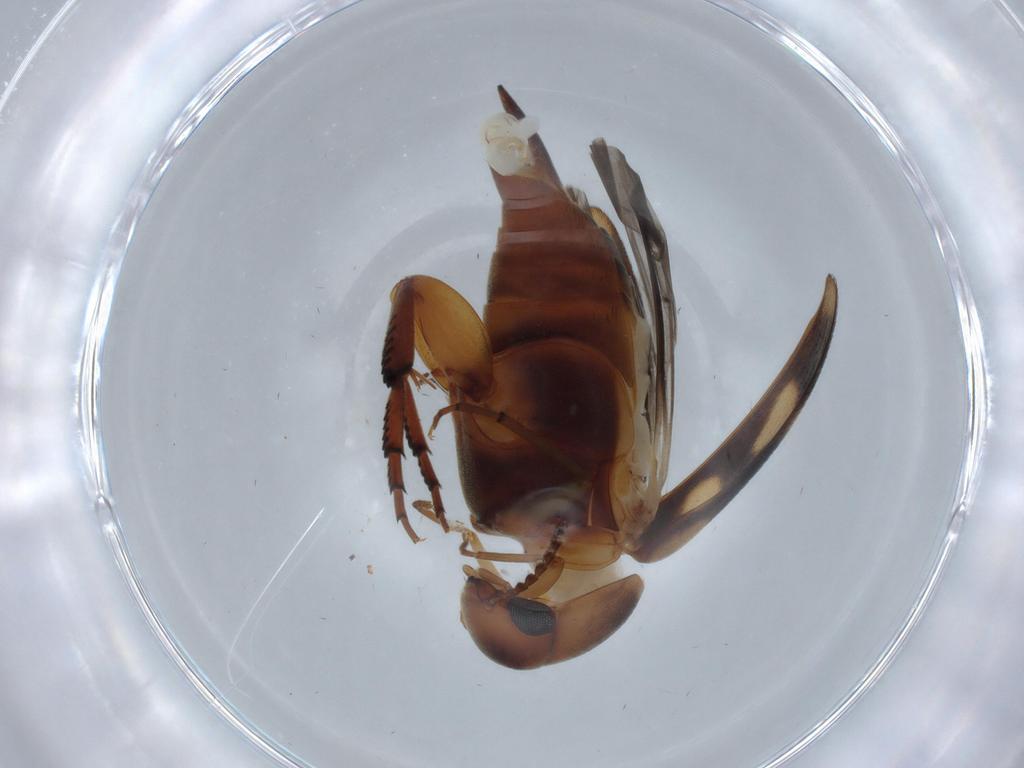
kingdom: Animalia
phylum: Arthropoda
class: Insecta
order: Coleoptera
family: Mordellidae
